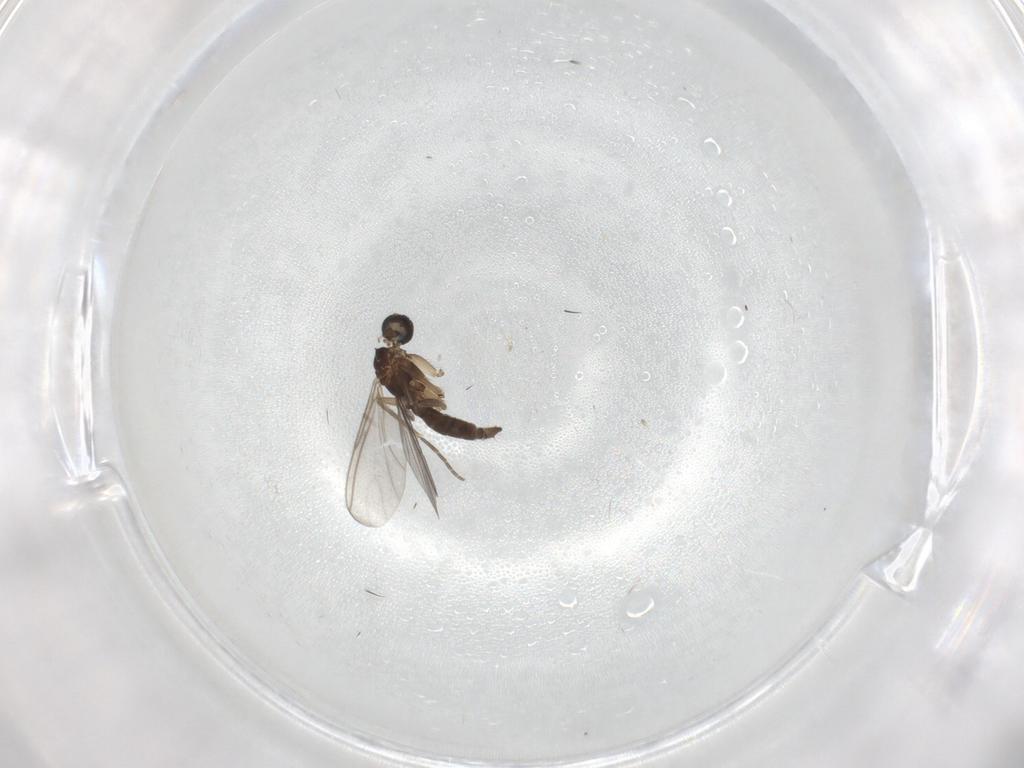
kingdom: Animalia
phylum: Arthropoda
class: Insecta
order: Diptera
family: Sciaridae
